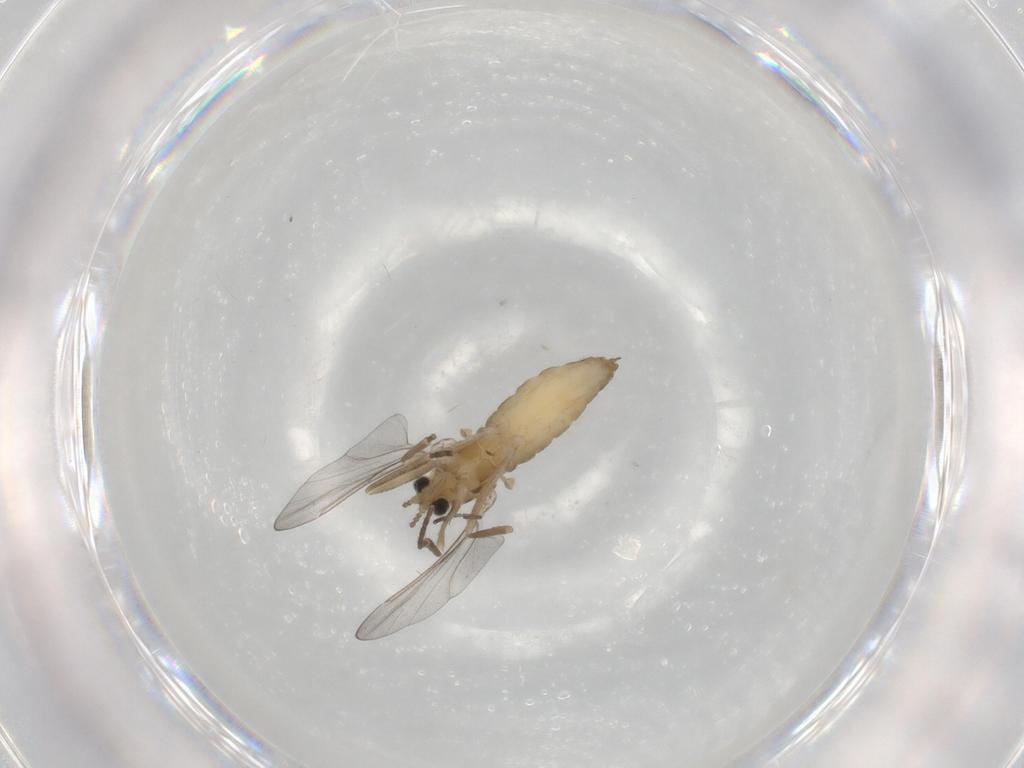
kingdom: Animalia
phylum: Arthropoda
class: Insecta
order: Diptera
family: Cecidomyiidae
